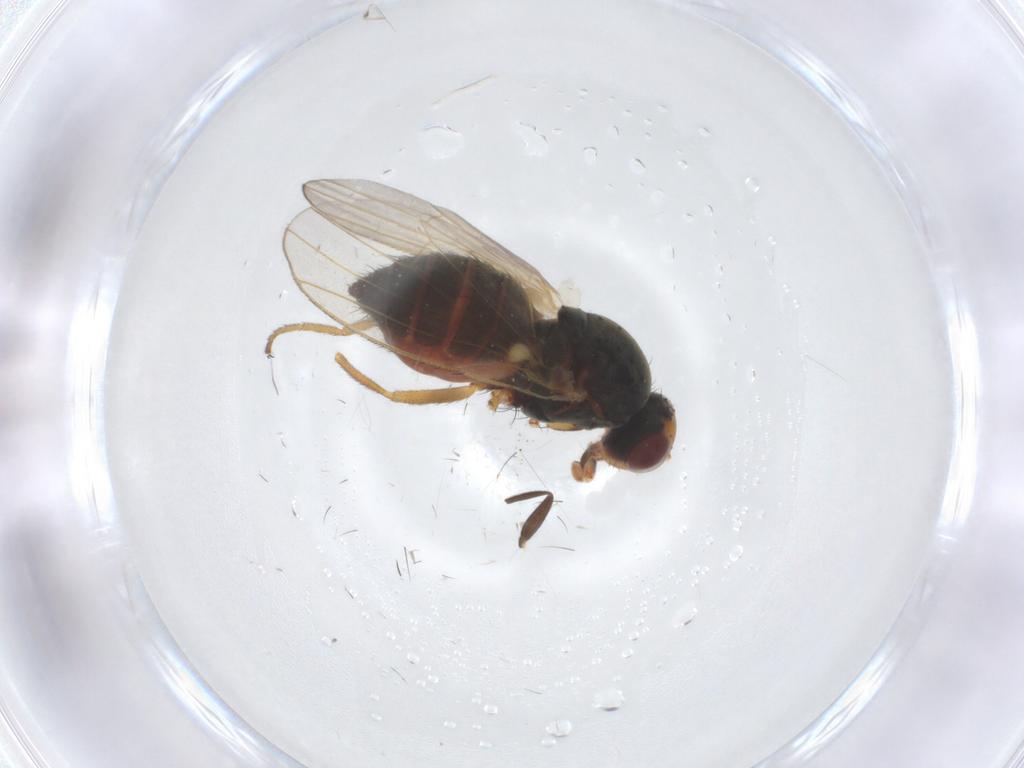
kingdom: Animalia
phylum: Arthropoda
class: Insecta
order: Diptera
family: Heleomyzidae
